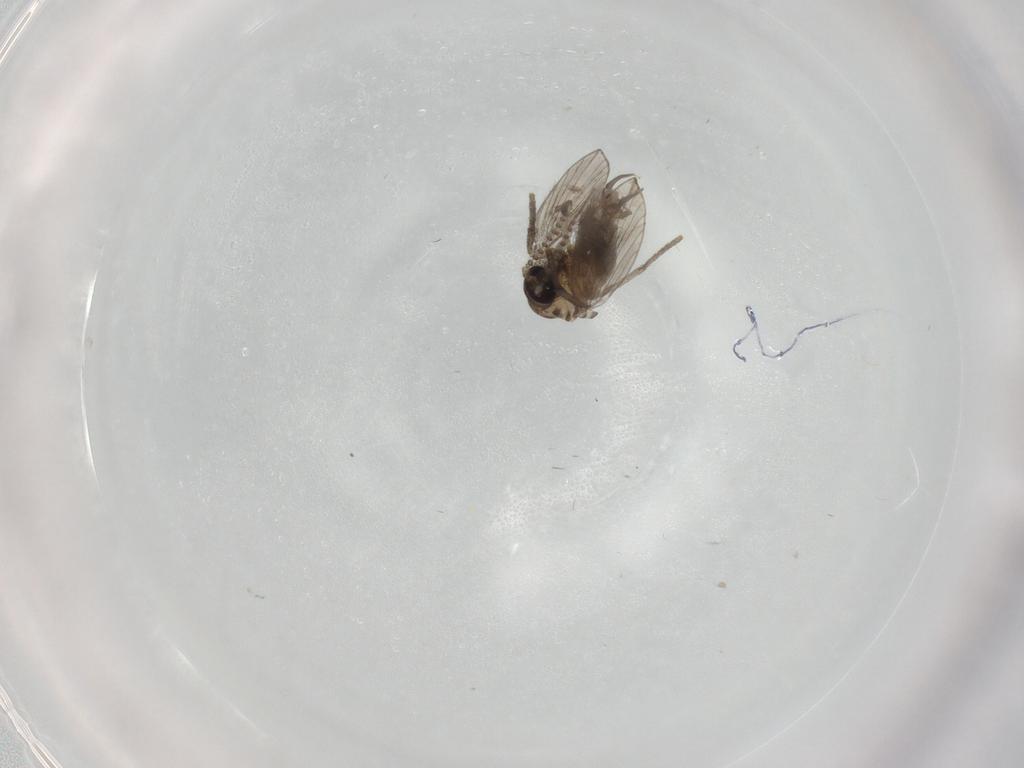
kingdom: Animalia
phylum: Arthropoda
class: Insecta
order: Diptera
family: Psychodidae
